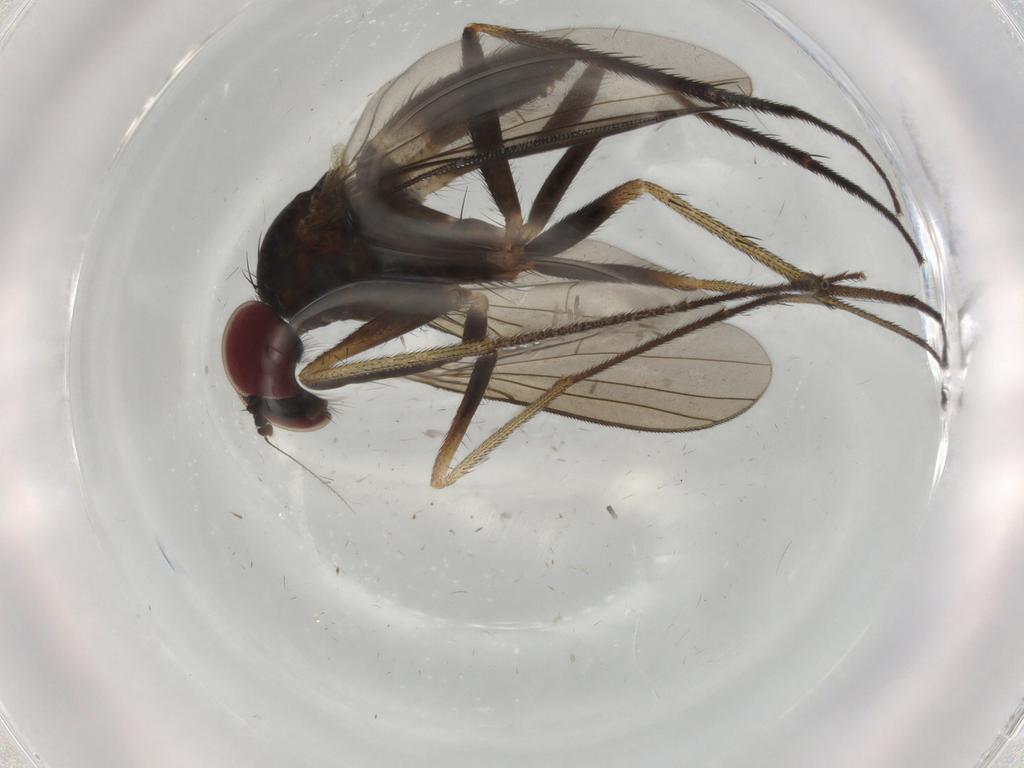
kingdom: Animalia
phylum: Arthropoda
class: Insecta
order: Diptera
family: Dolichopodidae
